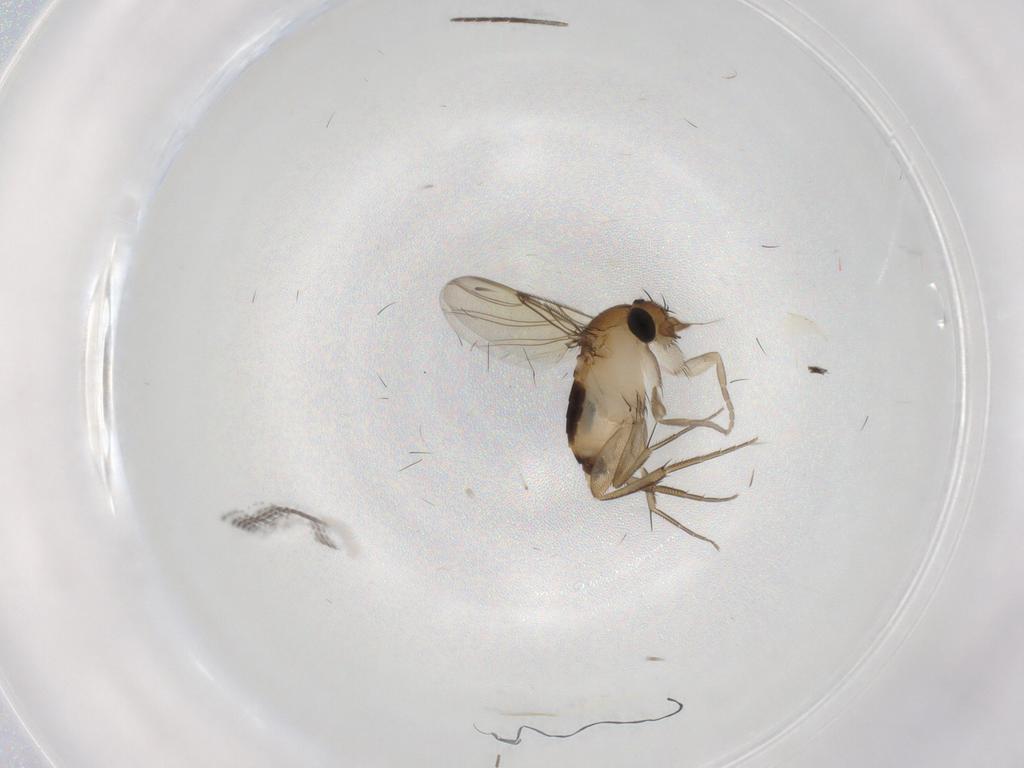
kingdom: Animalia
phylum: Arthropoda
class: Insecta
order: Diptera
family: Sciaridae
